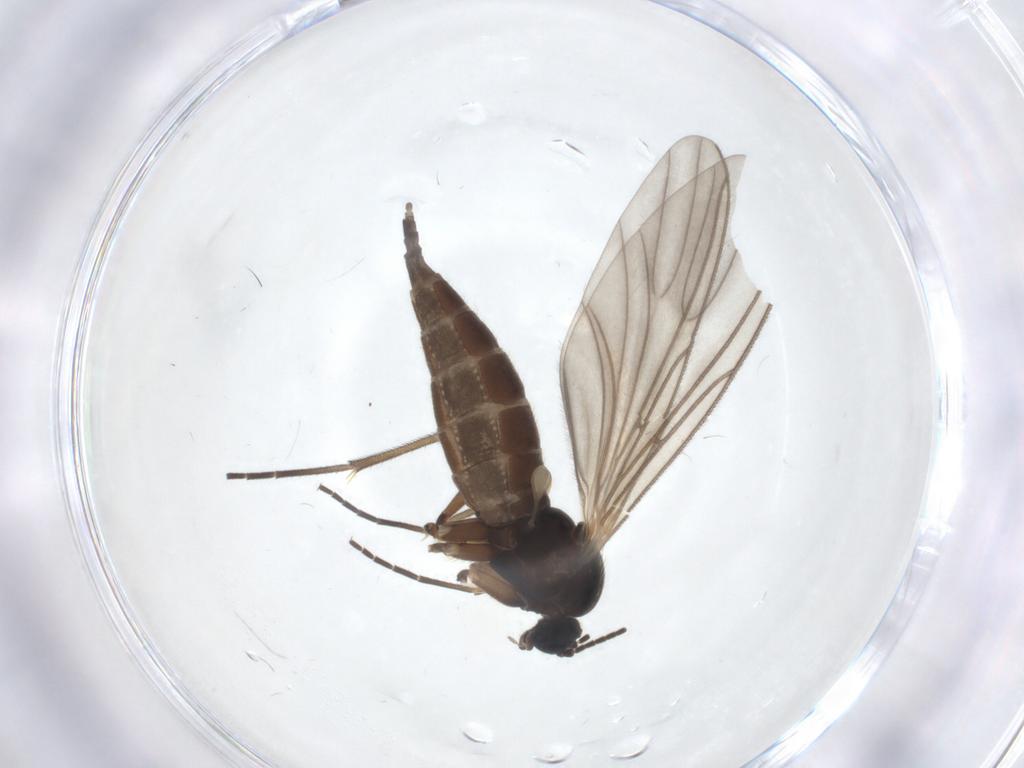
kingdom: Animalia
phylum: Arthropoda
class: Insecta
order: Diptera
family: Sciaridae
